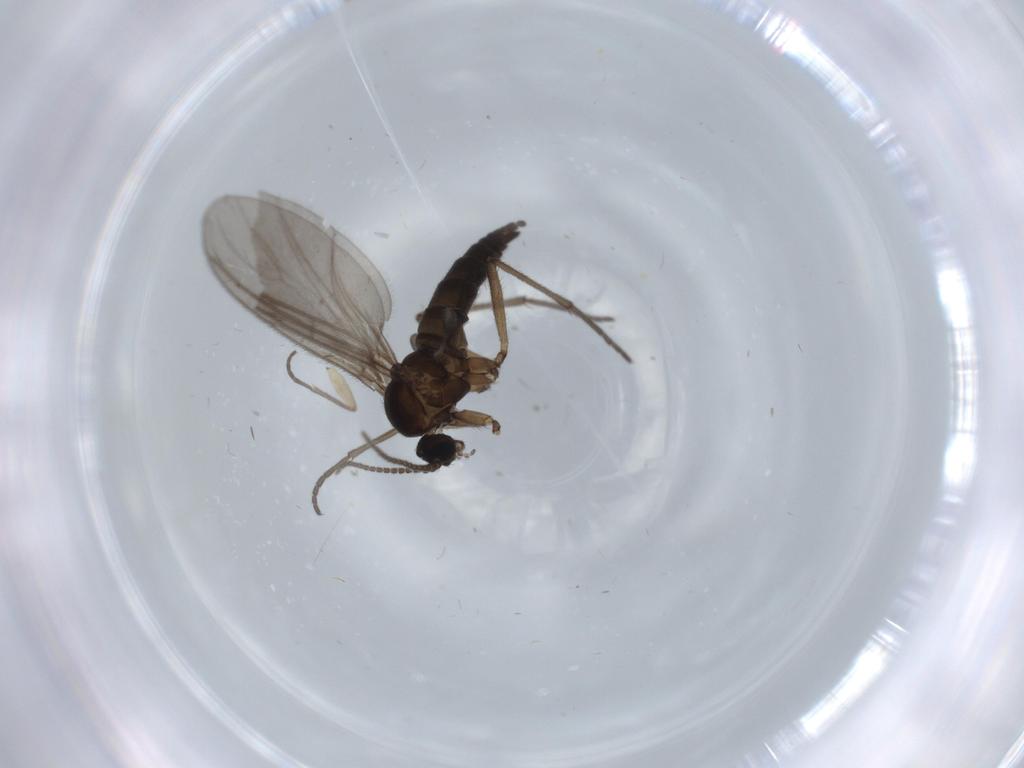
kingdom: Animalia
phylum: Arthropoda
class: Insecta
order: Diptera
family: Sciaridae
